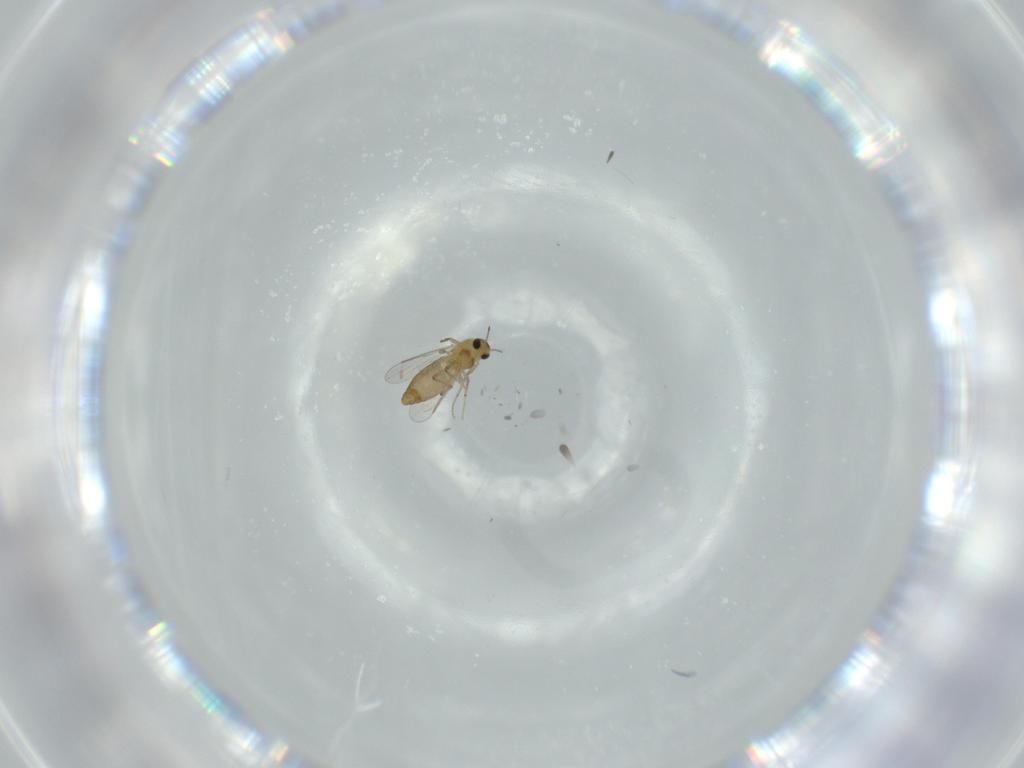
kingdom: Animalia
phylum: Arthropoda
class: Insecta
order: Diptera
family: Chironomidae
